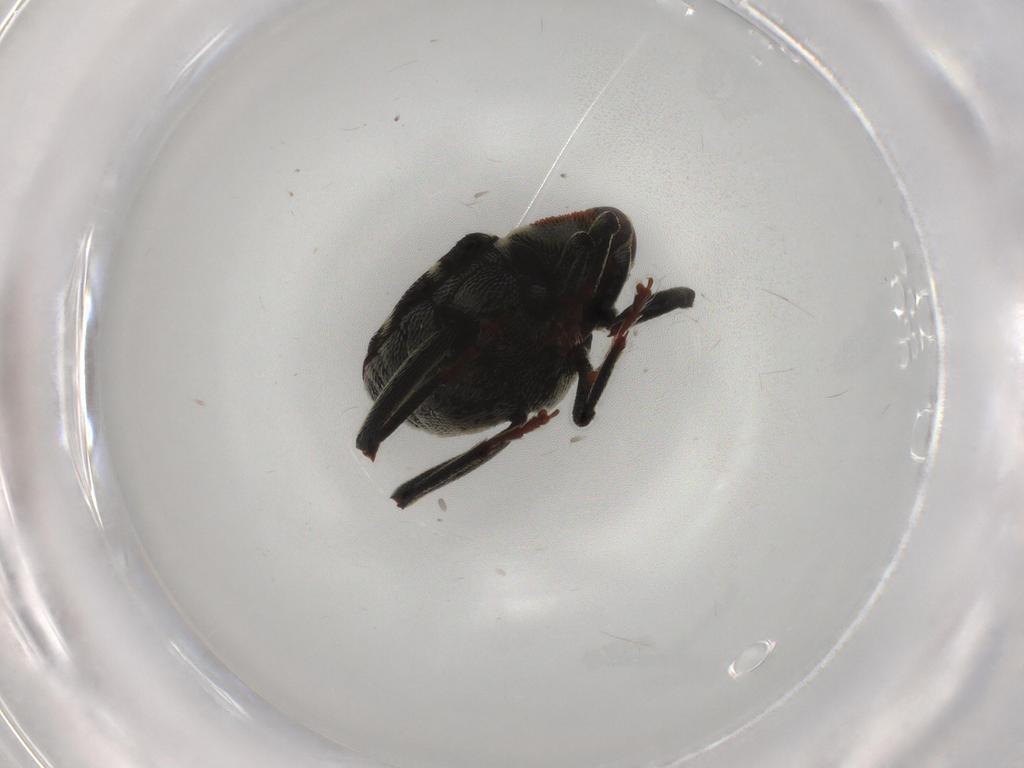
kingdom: Animalia
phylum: Arthropoda
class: Insecta
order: Coleoptera
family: Curculionidae
